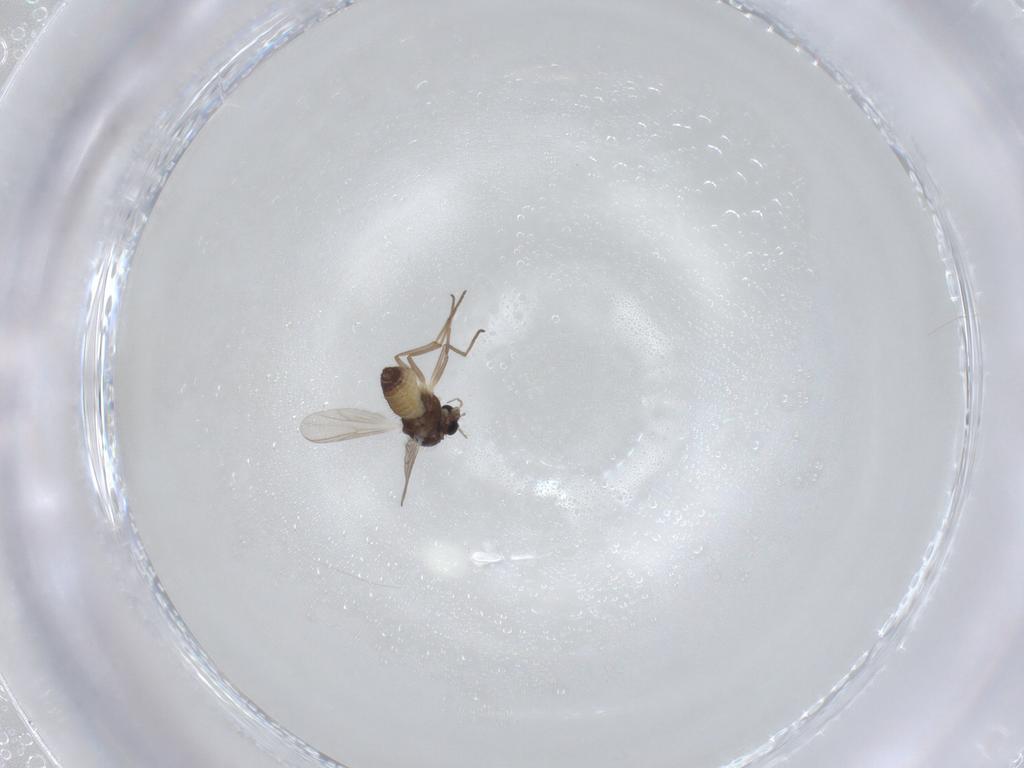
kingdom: Animalia
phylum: Arthropoda
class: Insecta
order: Diptera
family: Chironomidae
